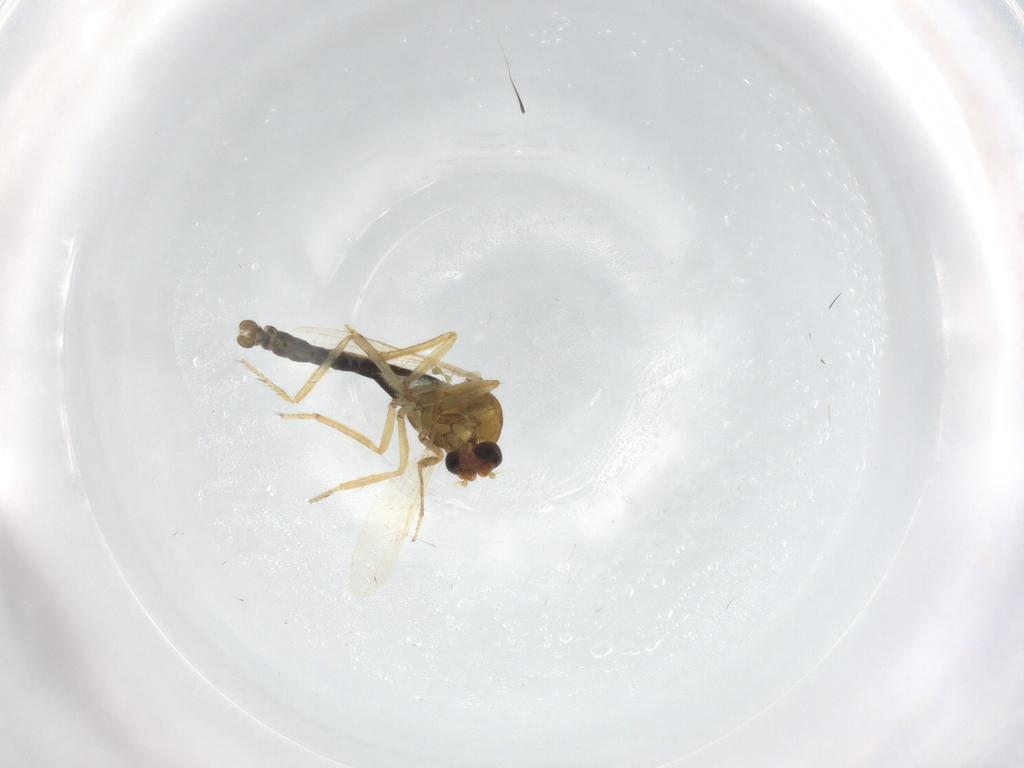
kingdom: Animalia
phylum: Arthropoda
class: Insecta
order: Diptera
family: Ceratopogonidae
